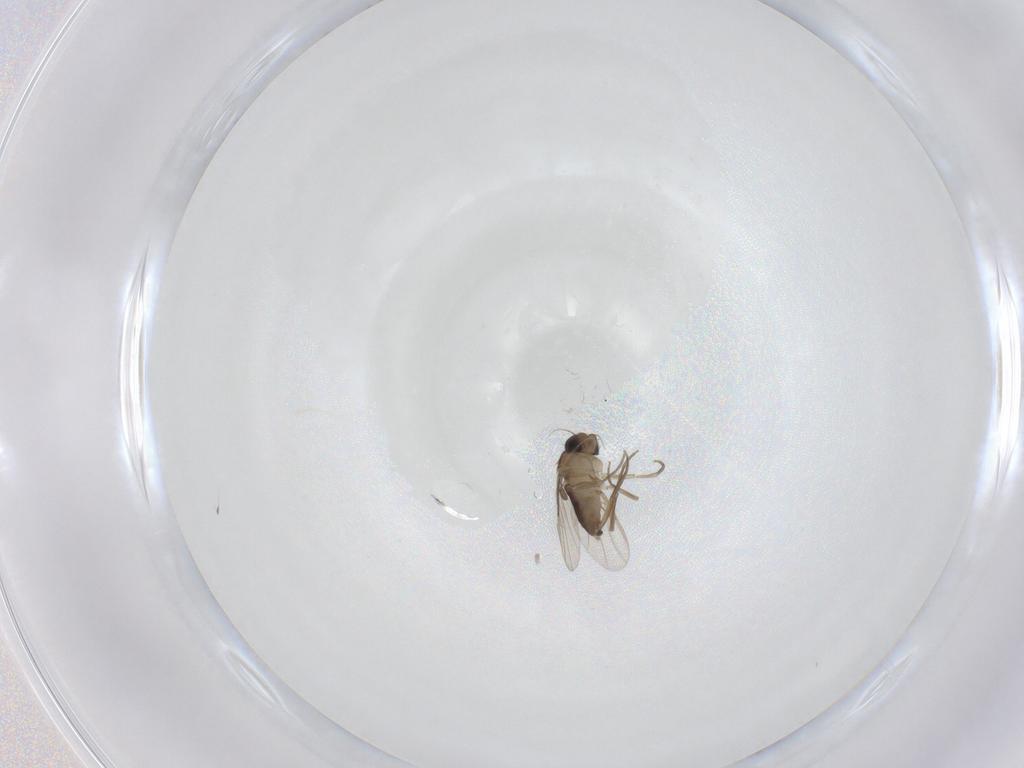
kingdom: Animalia
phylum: Arthropoda
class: Insecta
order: Diptera
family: Phoridae
